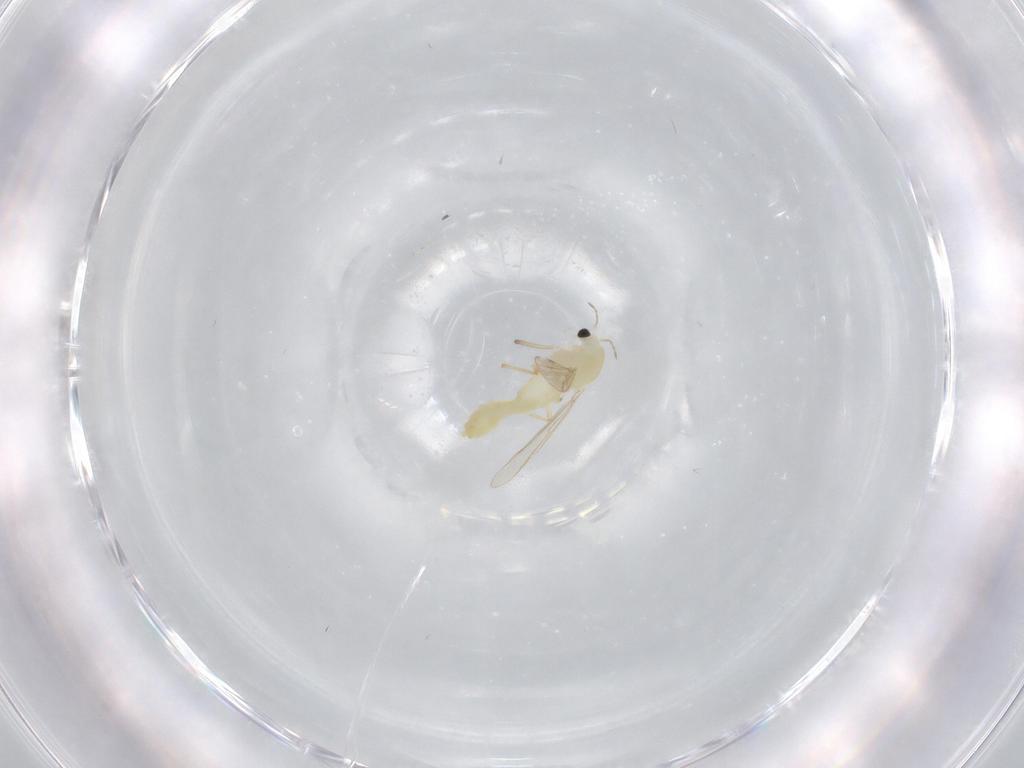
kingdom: Animalia
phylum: Arthropoda
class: Insecta
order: Diptera
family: Chironomidae
